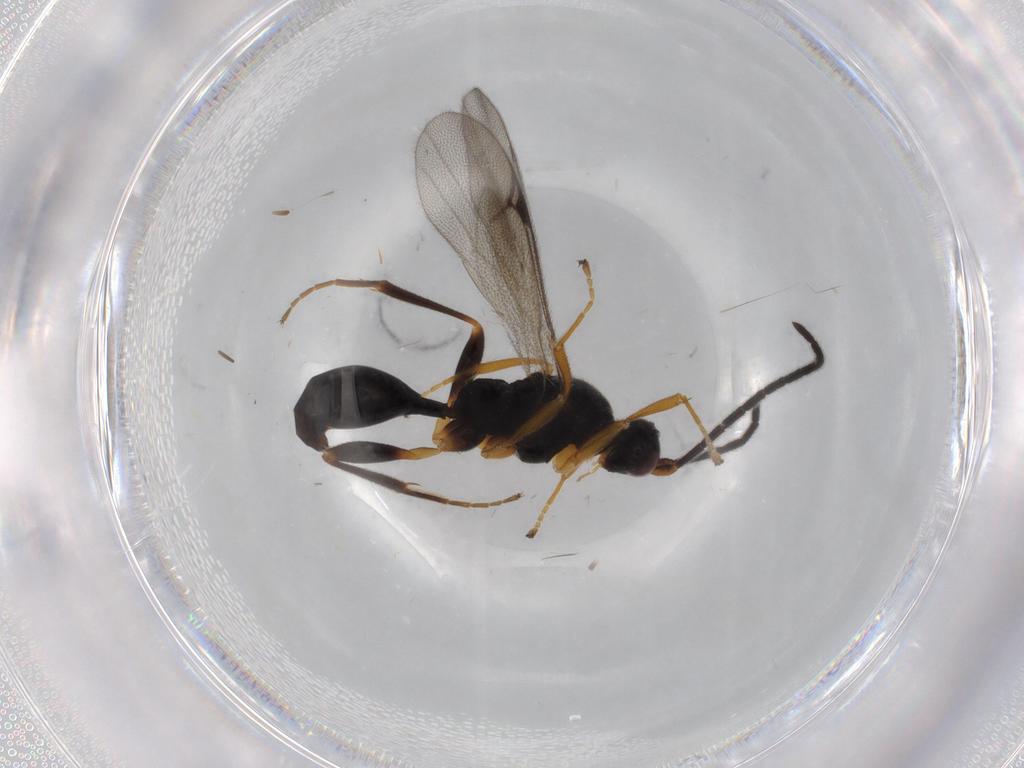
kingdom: Animalia
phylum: Arthropoda
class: Insecta
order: Hymenoptera
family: Proctotrupidae
